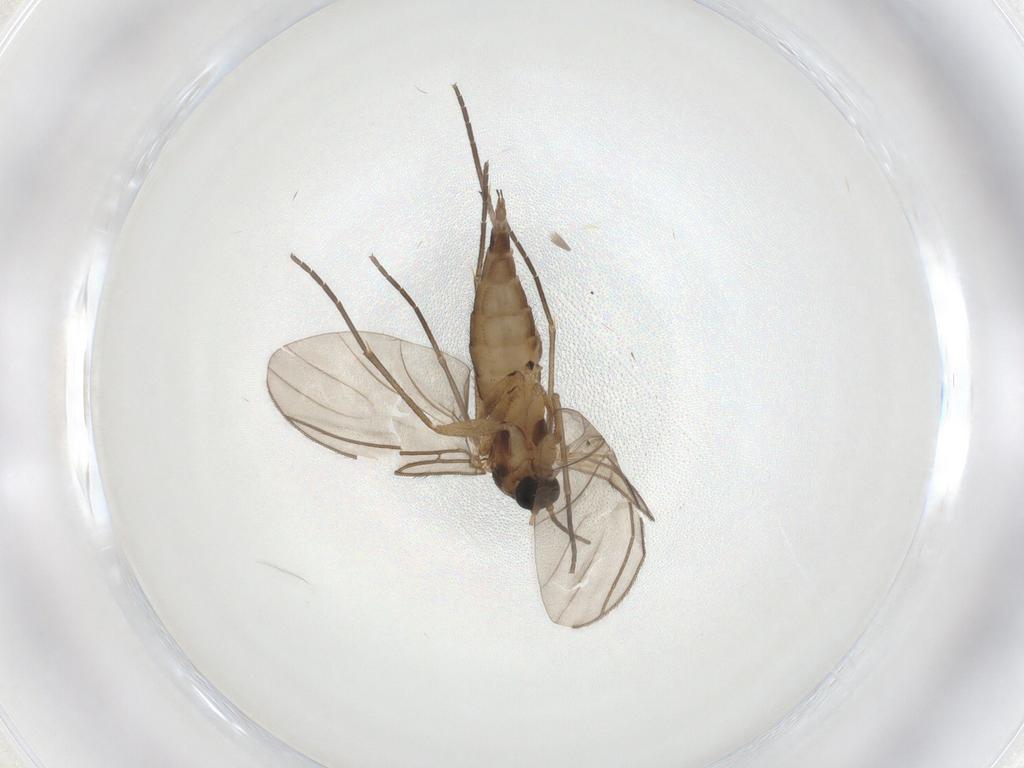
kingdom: Animalia
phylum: Arthropoda
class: Insecta
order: Diptera
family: Sciaridae
